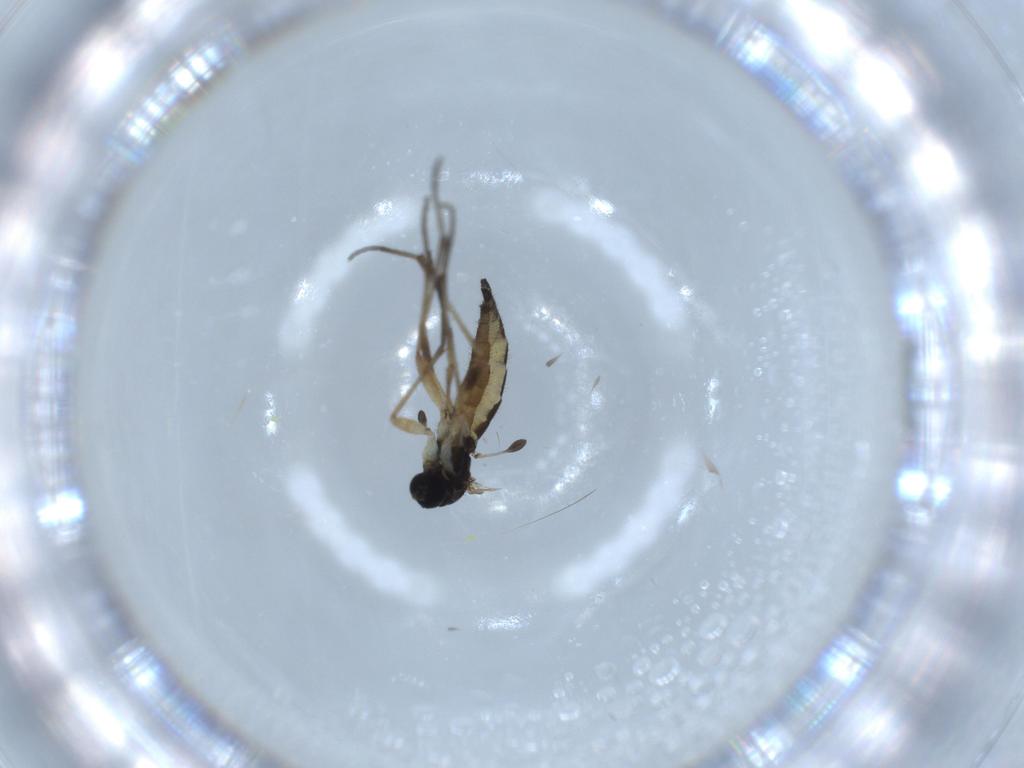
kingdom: Animalia
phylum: Arthropoda
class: Insecta
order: Diptera
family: Sciaridae
